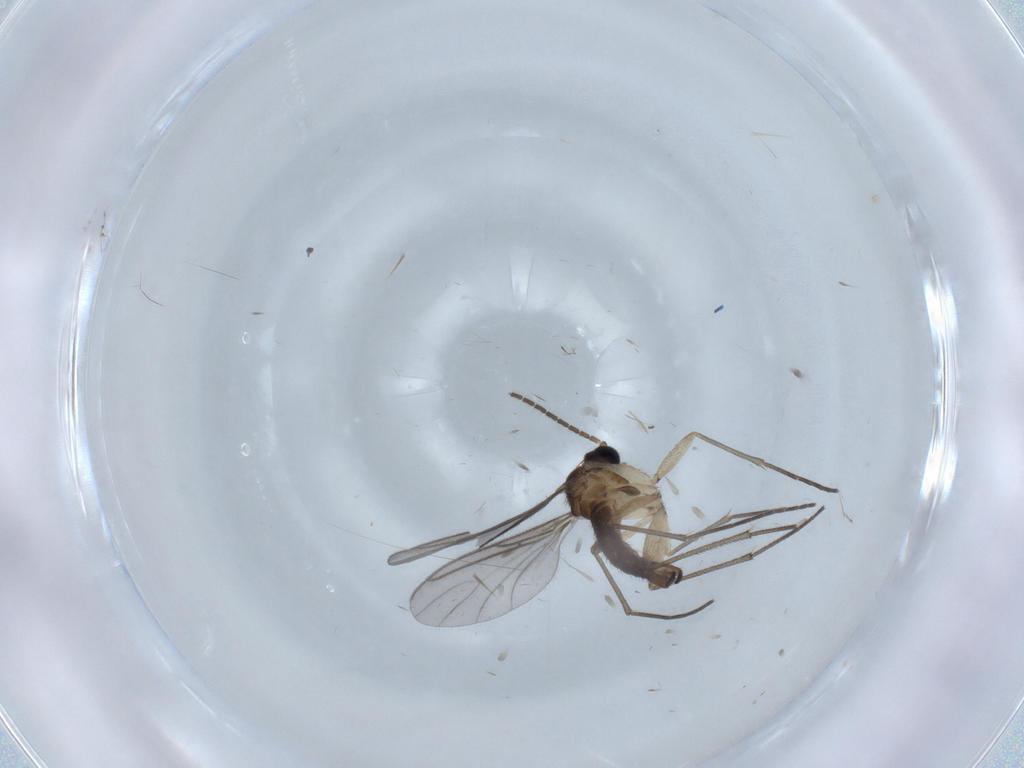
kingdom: Animalia
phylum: Arthropoda
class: Insecta
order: Diptera
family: Sciaridae
